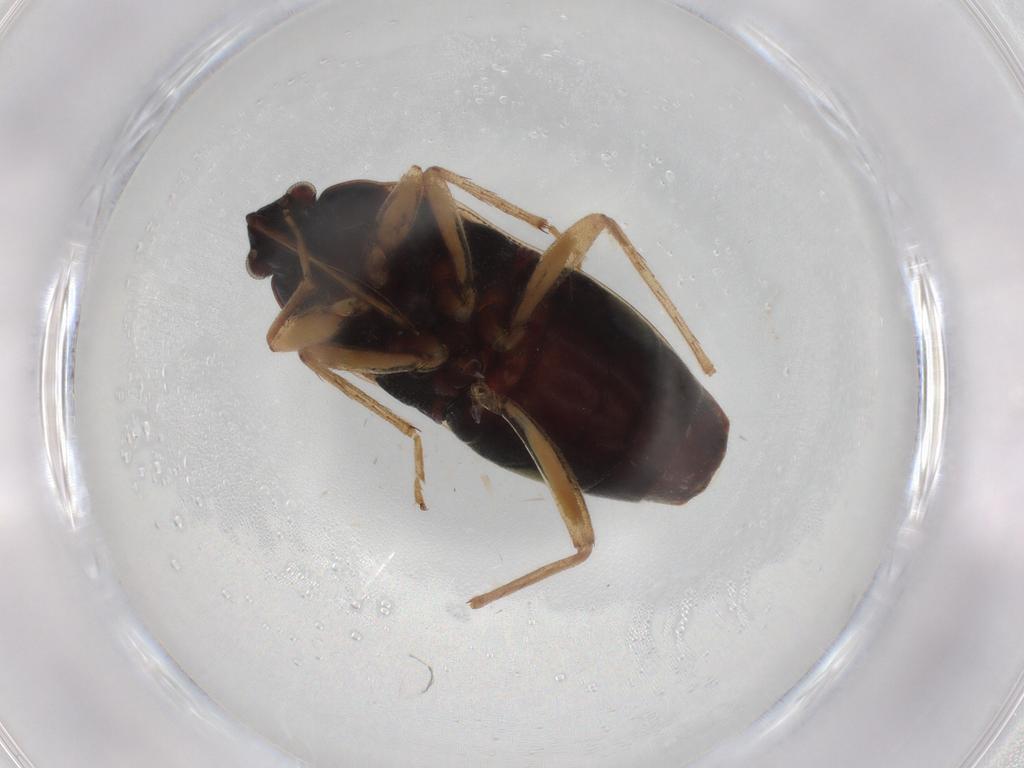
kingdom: Animalia
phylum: Arthropoda
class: Insecta
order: Hemiptera
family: Rhyparochromidae
